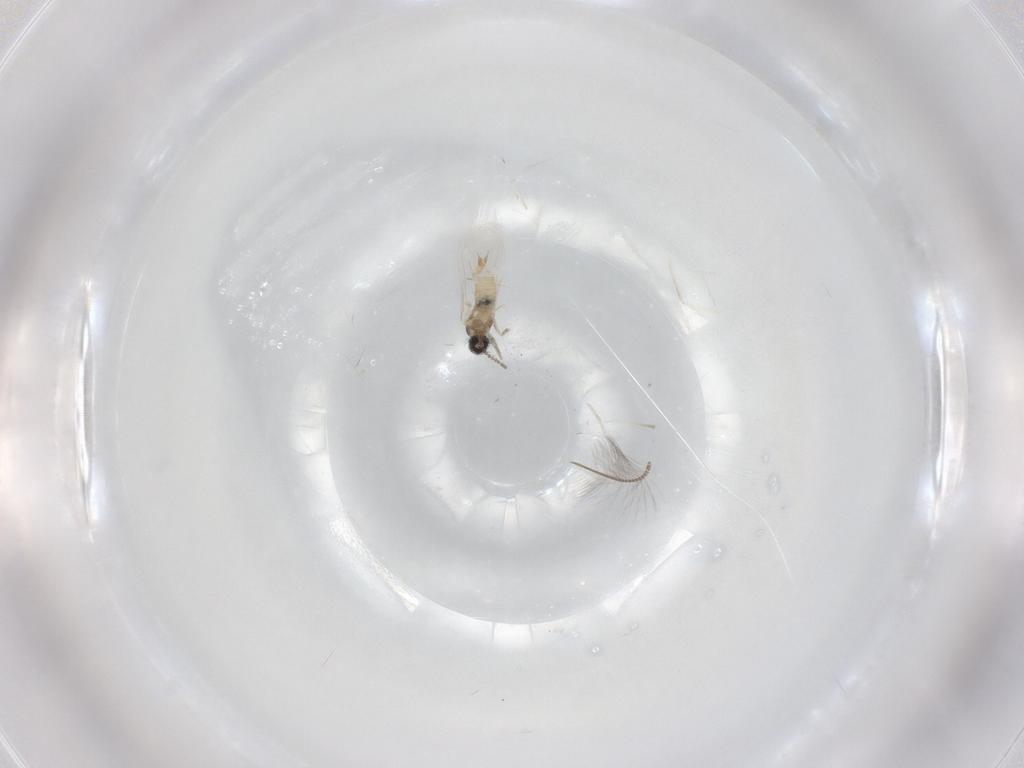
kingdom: Animalia
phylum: Arthropoda
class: Insecta
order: Diptera
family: Cecidomyiidae
